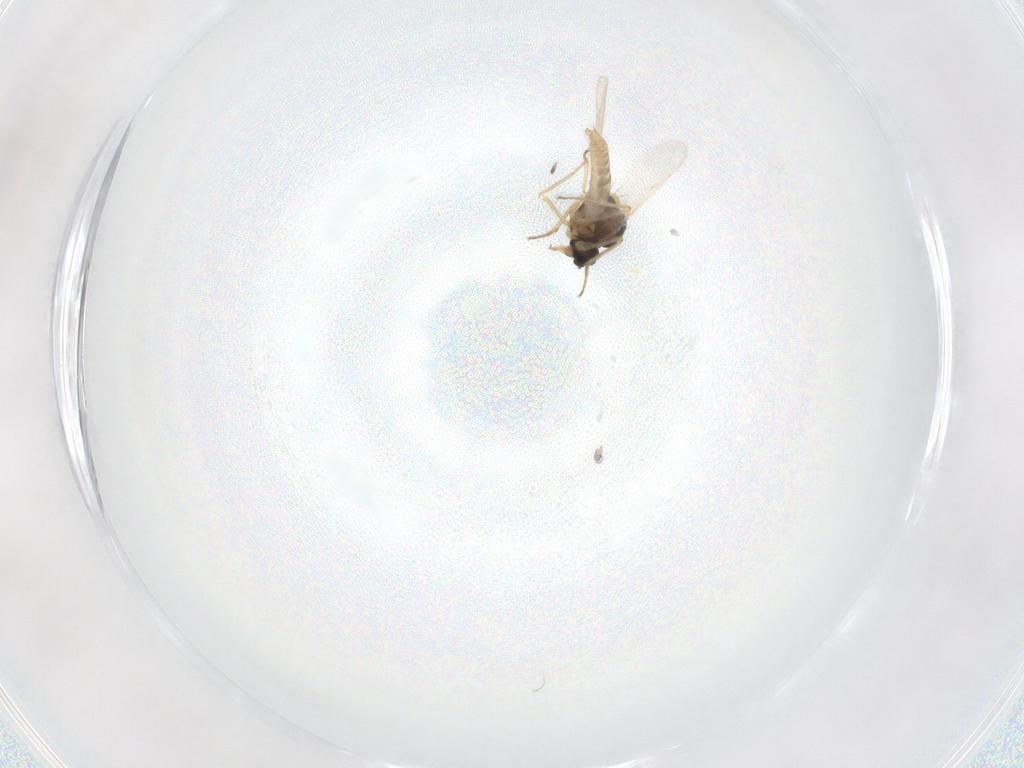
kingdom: Animalia
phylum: Arthropoda
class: Insecta
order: Diptera
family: Ceratopogonidae
